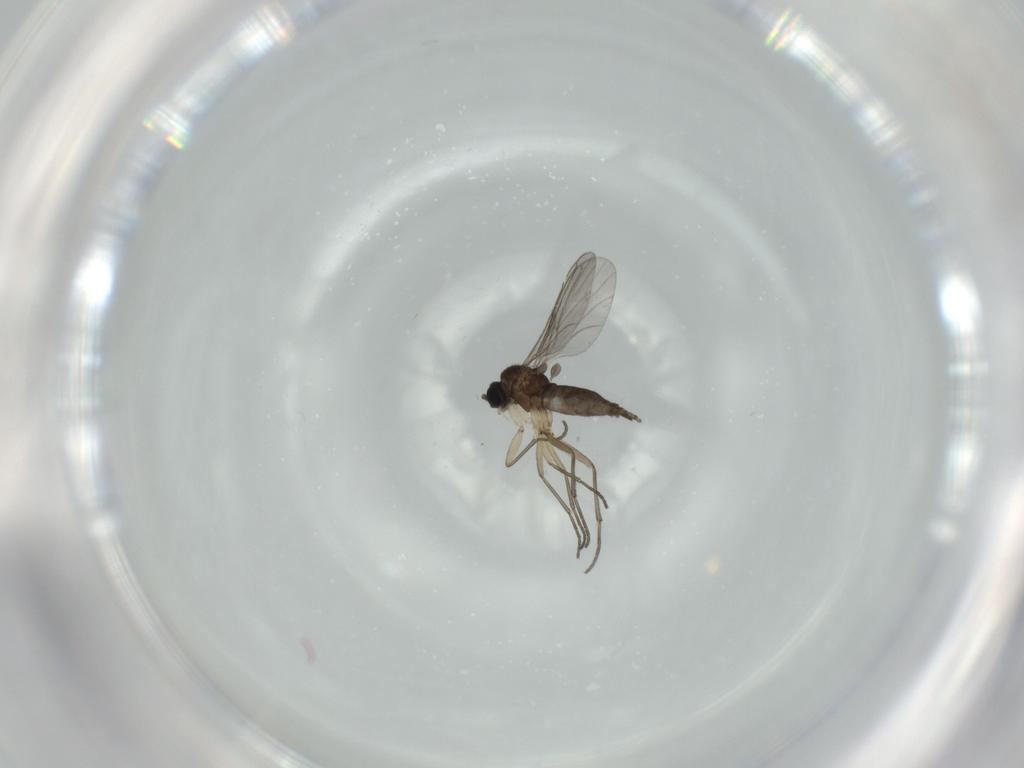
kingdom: Animalia
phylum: Arthropoda
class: Insecta
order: Diptera
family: Sciaridae
